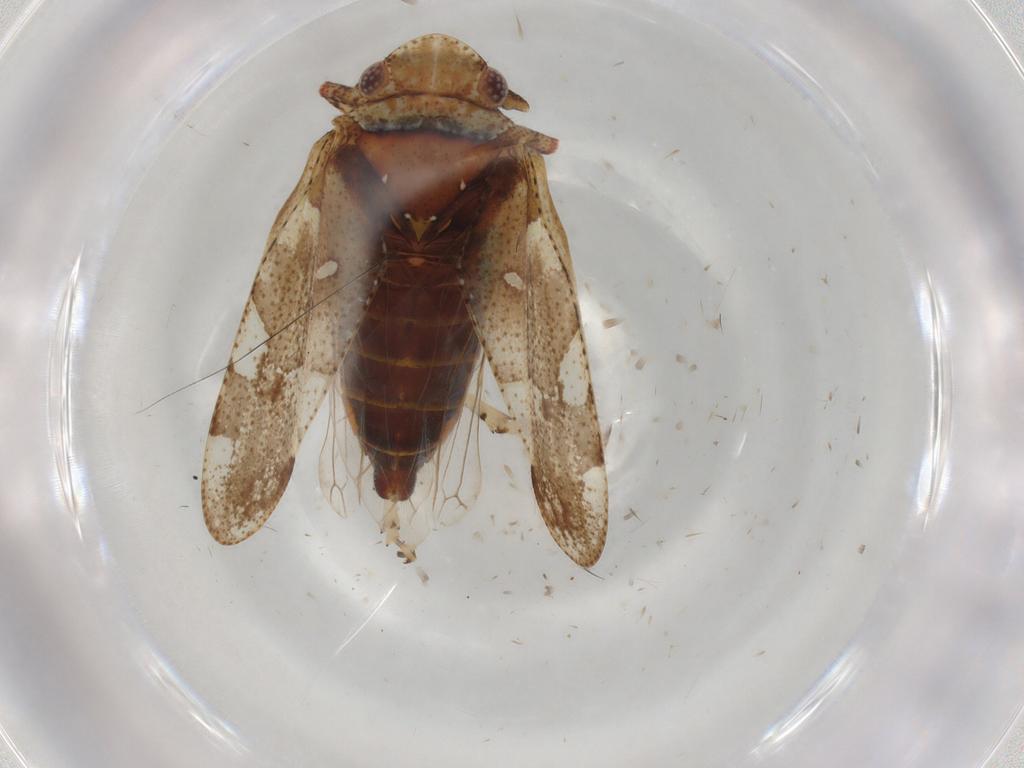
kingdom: Animalia
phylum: Arthropoda
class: Insecta
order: Hemiptera
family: Tettigometridae
